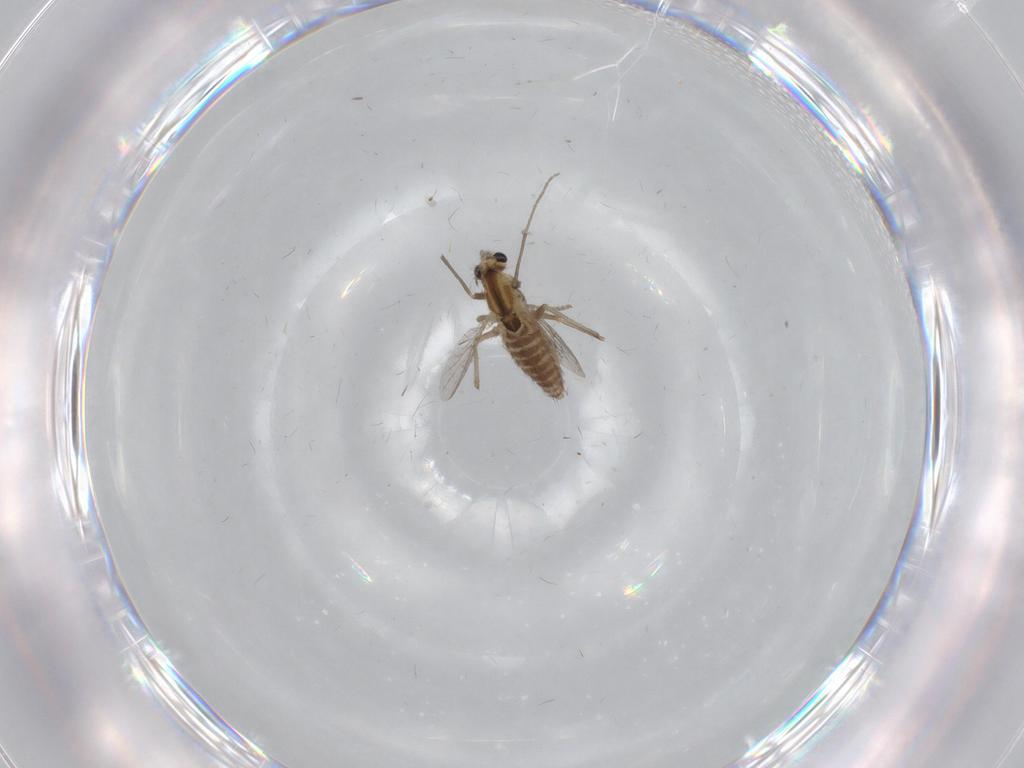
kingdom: Animalia
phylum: Arthropoda
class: Insecta
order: Diptera
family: Chironomidae
